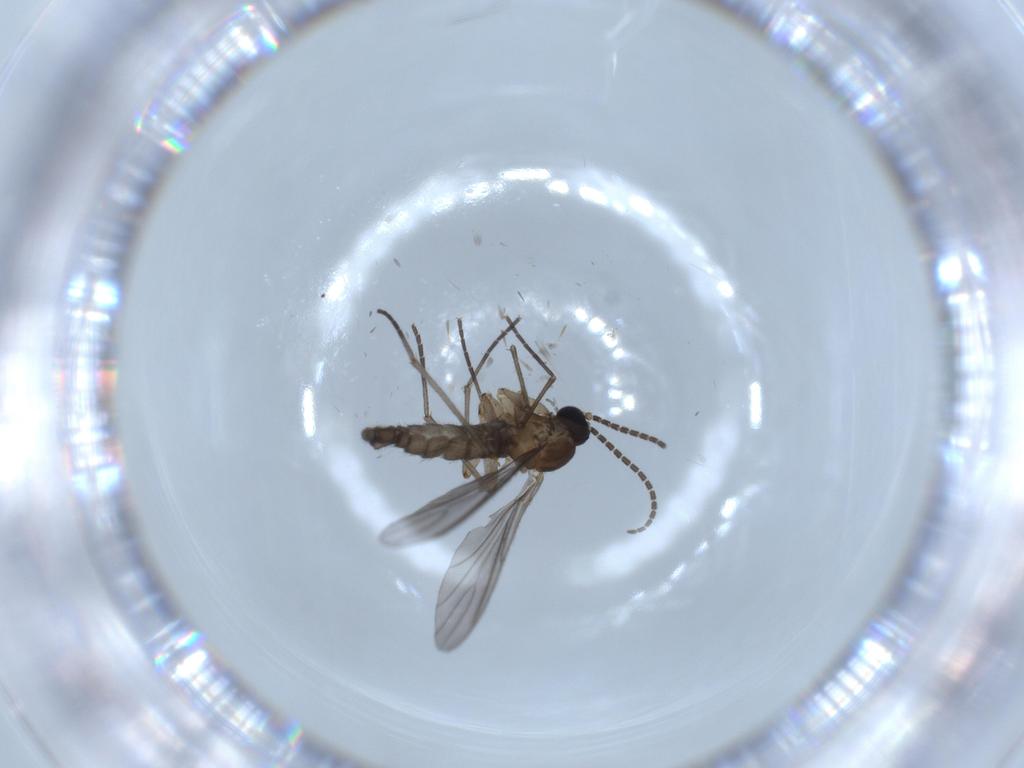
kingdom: Animalia
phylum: Arthropoda
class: Insecta
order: Diptera
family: Sciaridae
